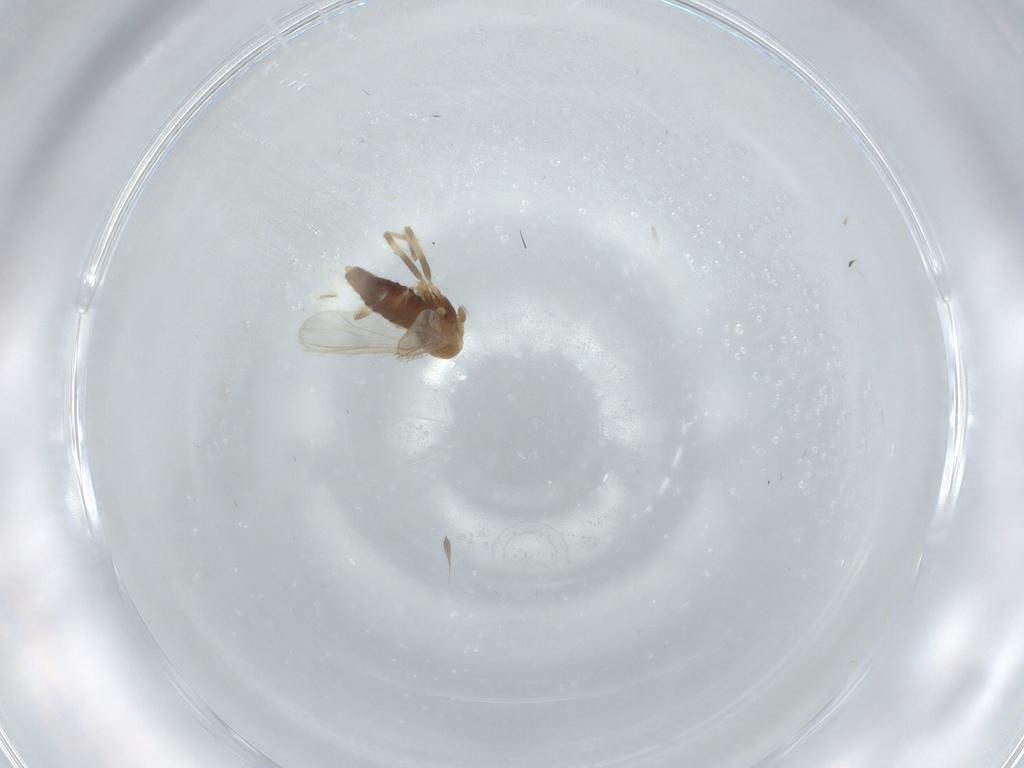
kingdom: Animalia
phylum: Arthropoda
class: Insecta
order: Diptera
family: Chironomidae
